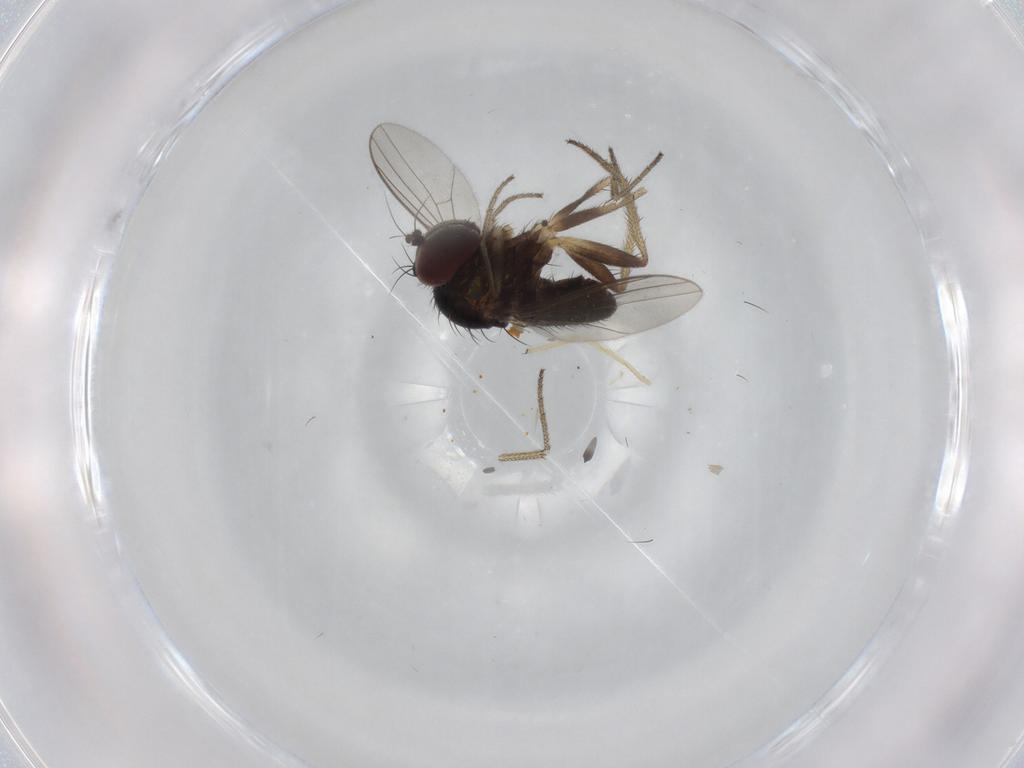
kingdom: Animalia
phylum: Arthropoda
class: Insecta
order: Diptera
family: Dolichopodidae
